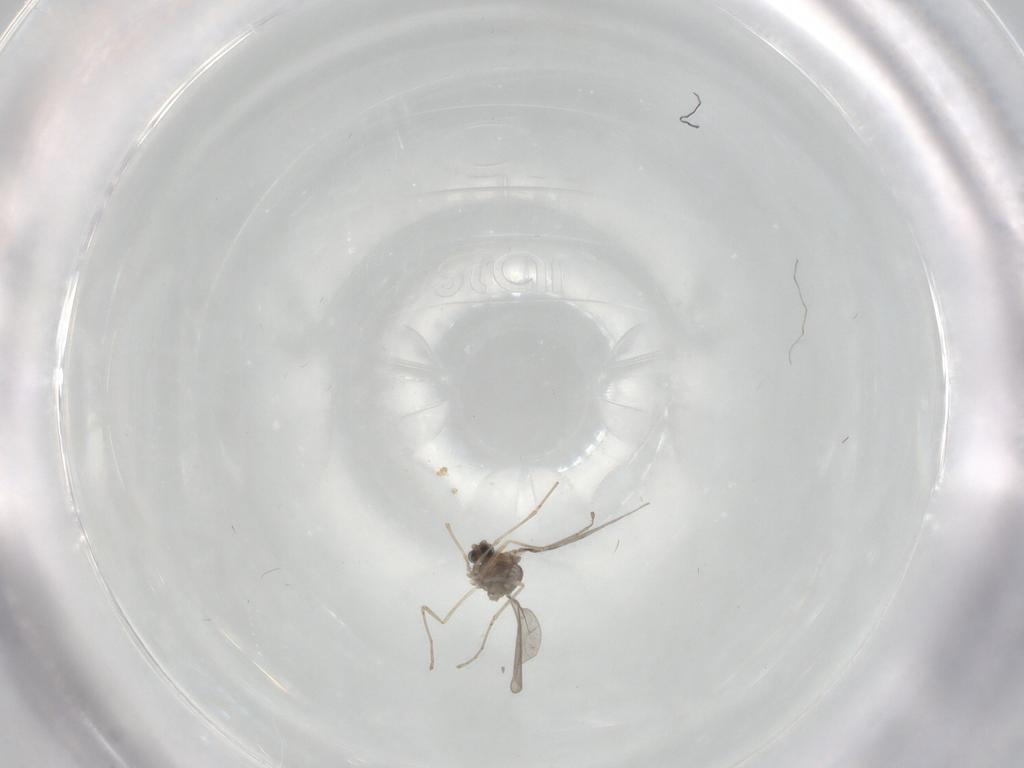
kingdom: Animalia
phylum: Arthropoda
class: Insecta
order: Diptera
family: Cecidomyiidae
